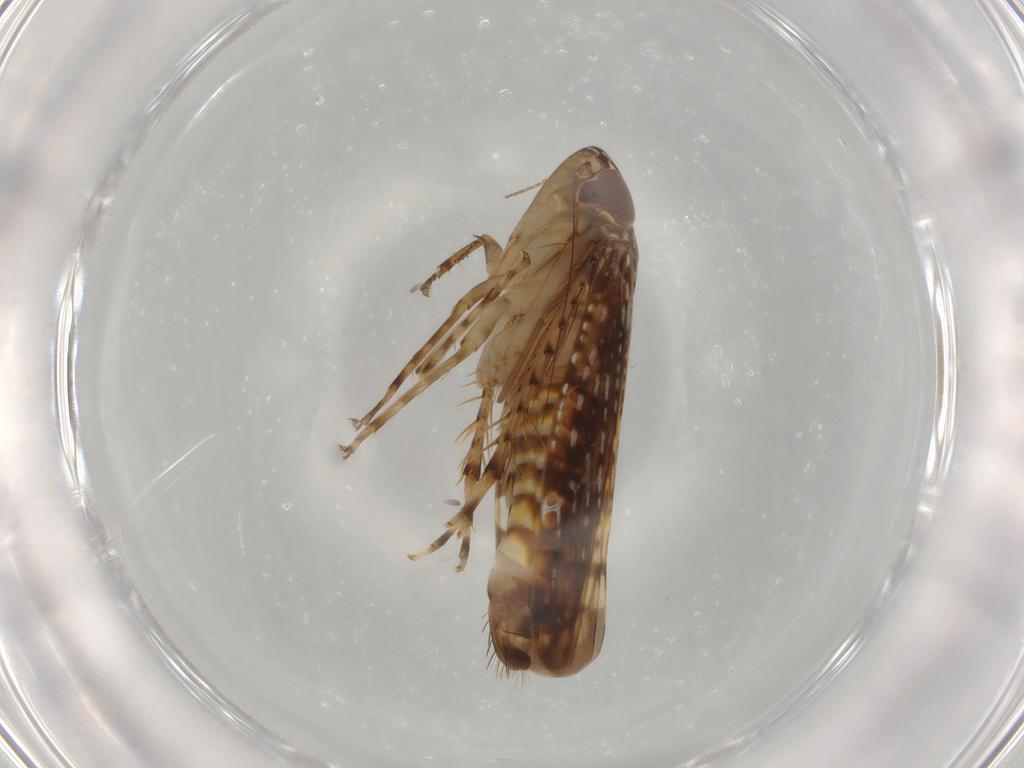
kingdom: Animalia
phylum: Arthropoda
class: Insecta
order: Hemiptera
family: Cicadellidae
